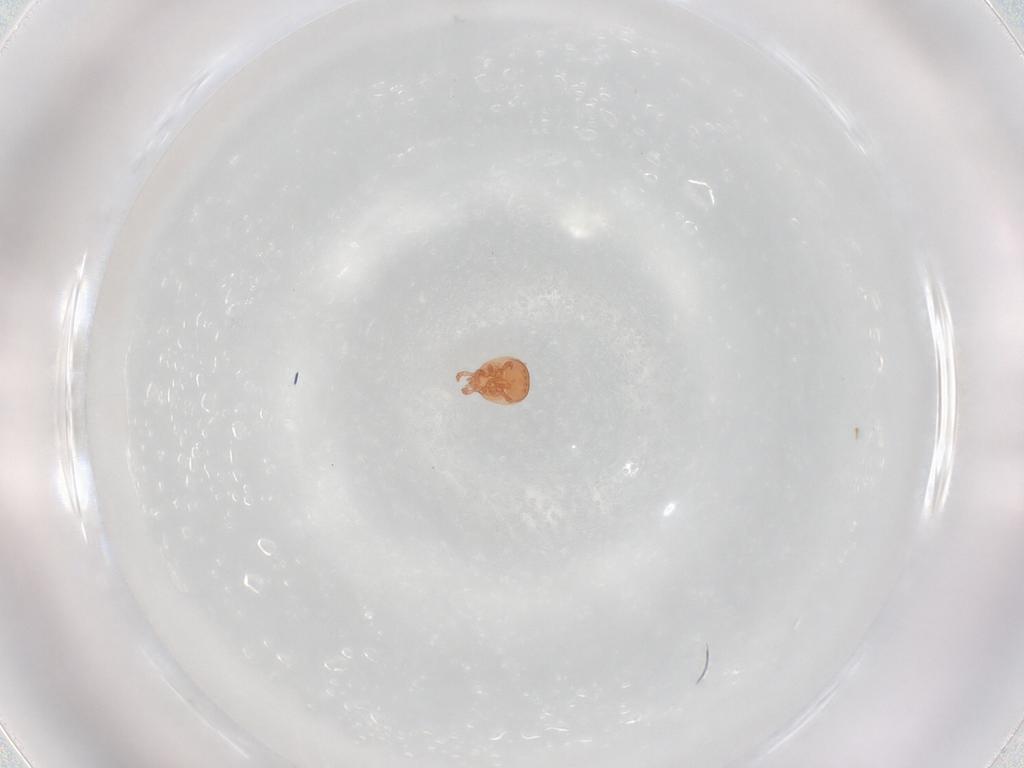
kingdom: Animalia
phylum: Arthropoda
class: Arachnida
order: Mesostigmata
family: Zerconidae
